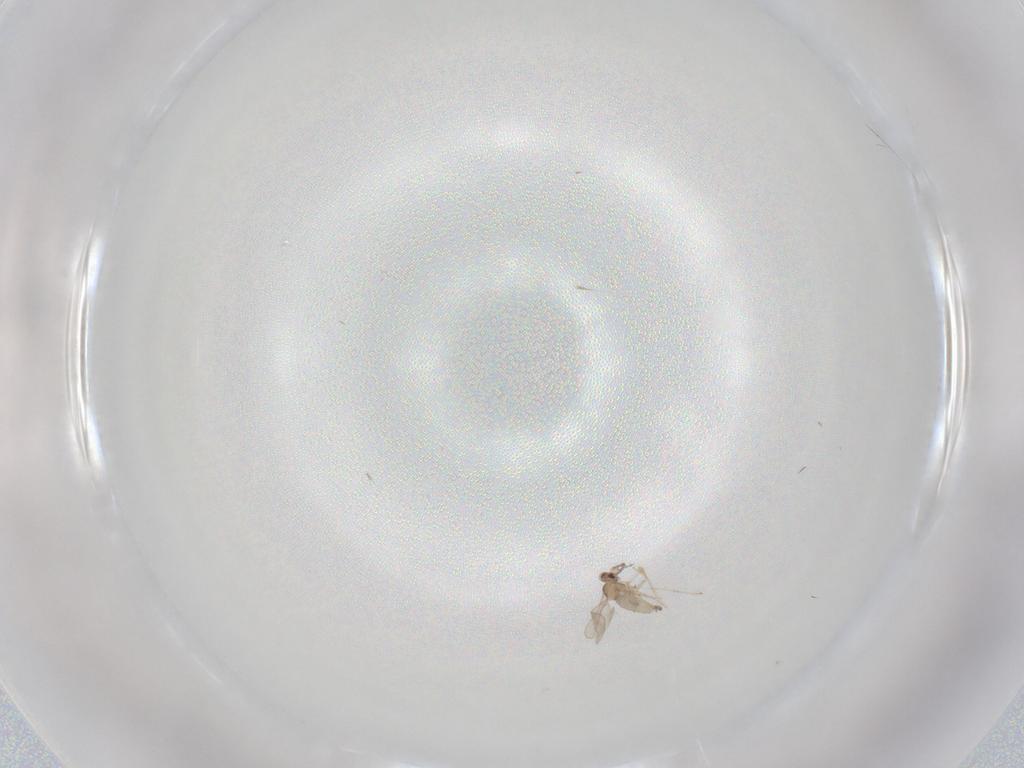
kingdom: Animalia
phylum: Arthropoda
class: Insecta
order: Diptera
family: Cecidomyiidae
